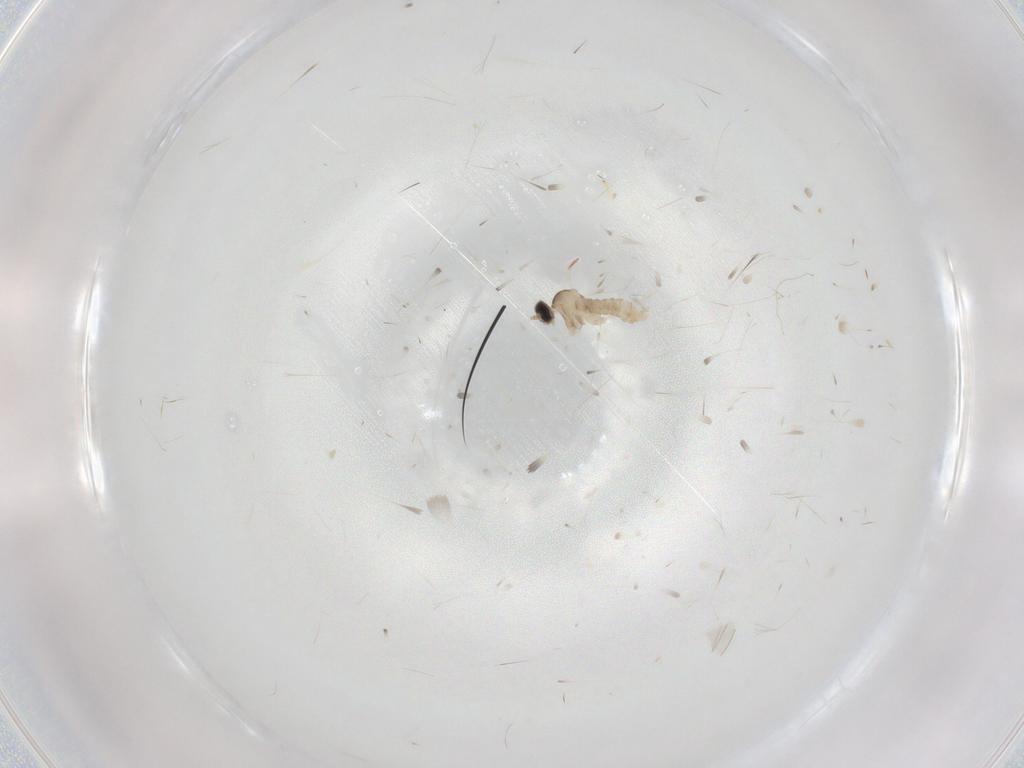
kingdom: Animalia
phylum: Arthropoda
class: Insecta
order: Diptera
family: Cecidomyiidae
